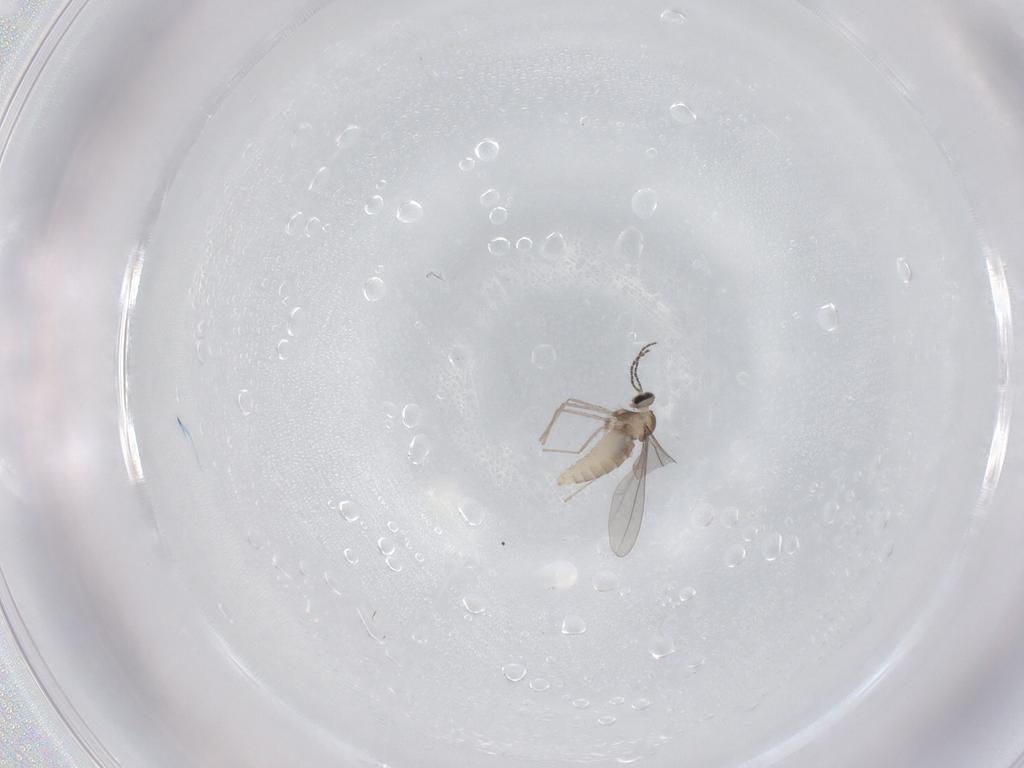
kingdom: Animalia
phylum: Arthropoda
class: Insecta
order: Diptera
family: Cecidomyiidae
